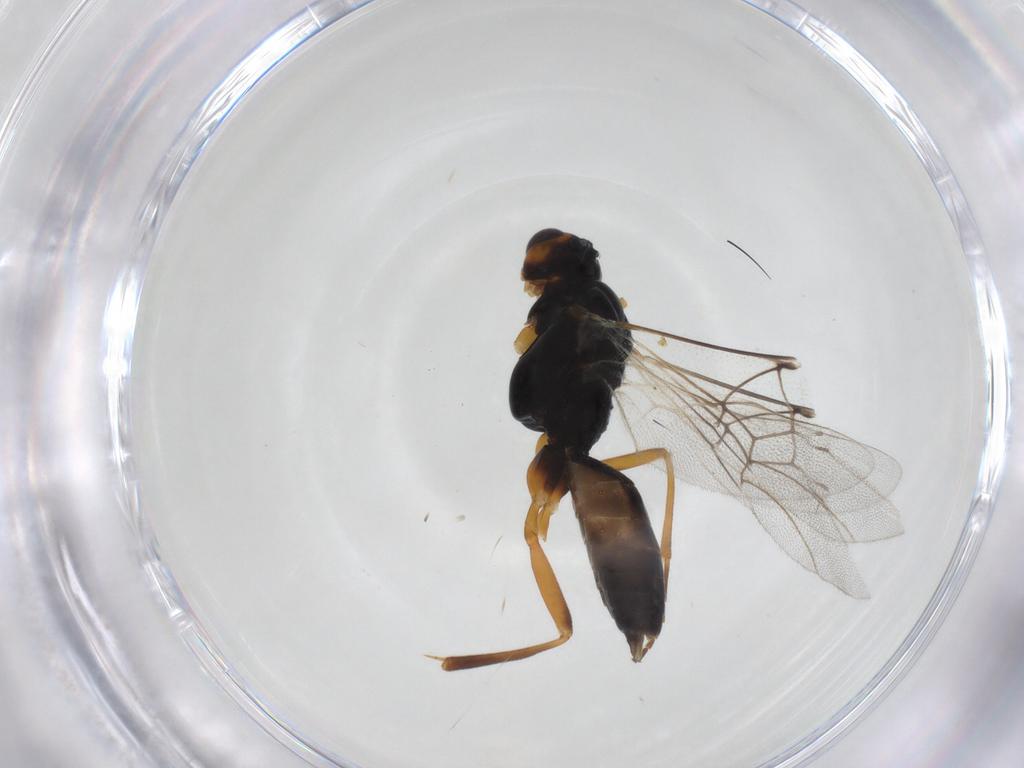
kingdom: Animalia
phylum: Arthropoda
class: Insecta
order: Hymenoptera
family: Braconidae
